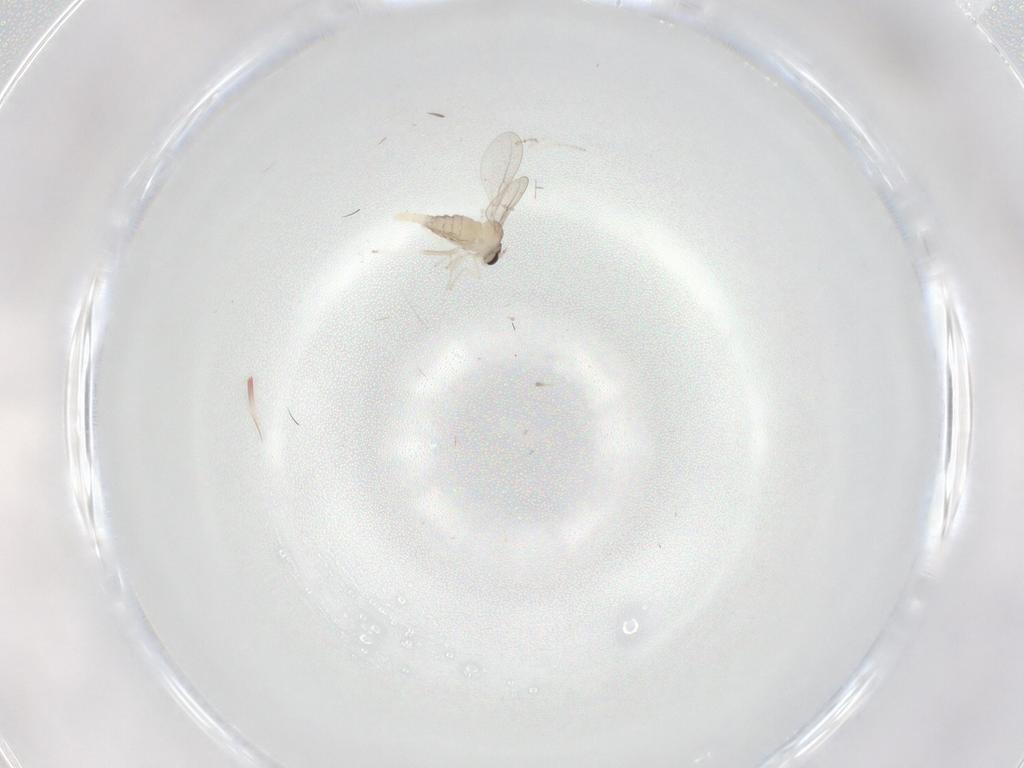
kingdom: Animalia
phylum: Arthropoda
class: Insecta
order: Diptera
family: Cecidomyiidae
